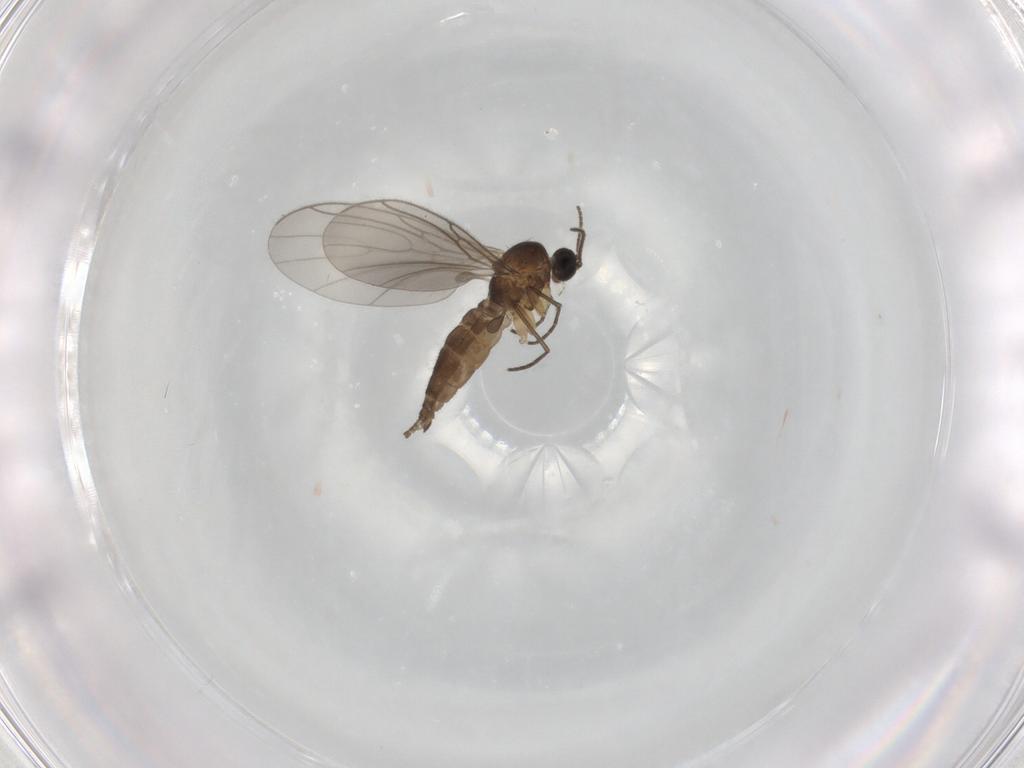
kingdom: Animalia
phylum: Arthropoda
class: Insecta
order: Diptera
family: Sciaridae
